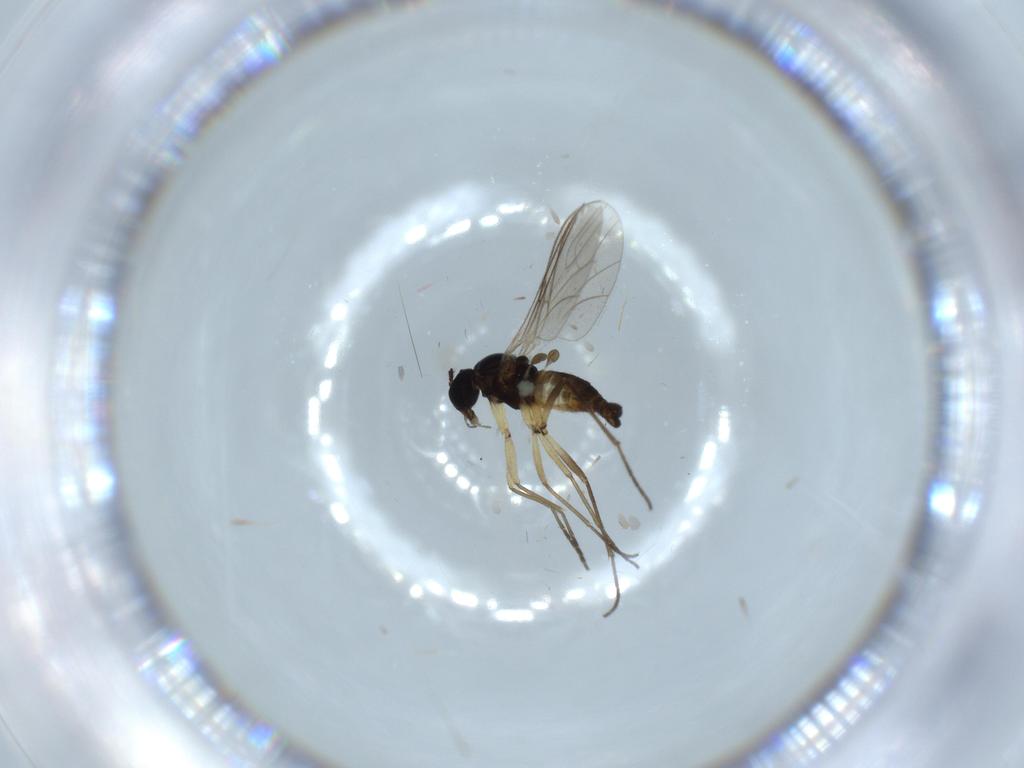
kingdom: Animalia
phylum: Arthropoda
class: Insecta
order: Diptera
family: Sciaridae
